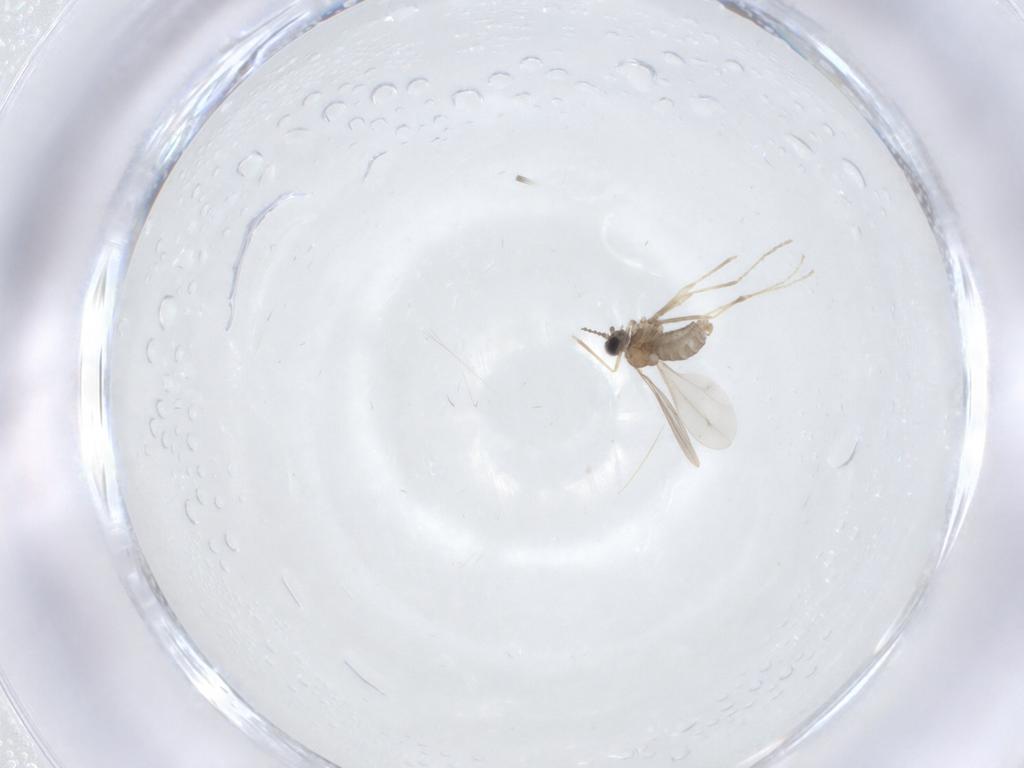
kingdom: Animalia
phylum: Arthropoda
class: Insecta
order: Diptera
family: Cecidomyiidae
